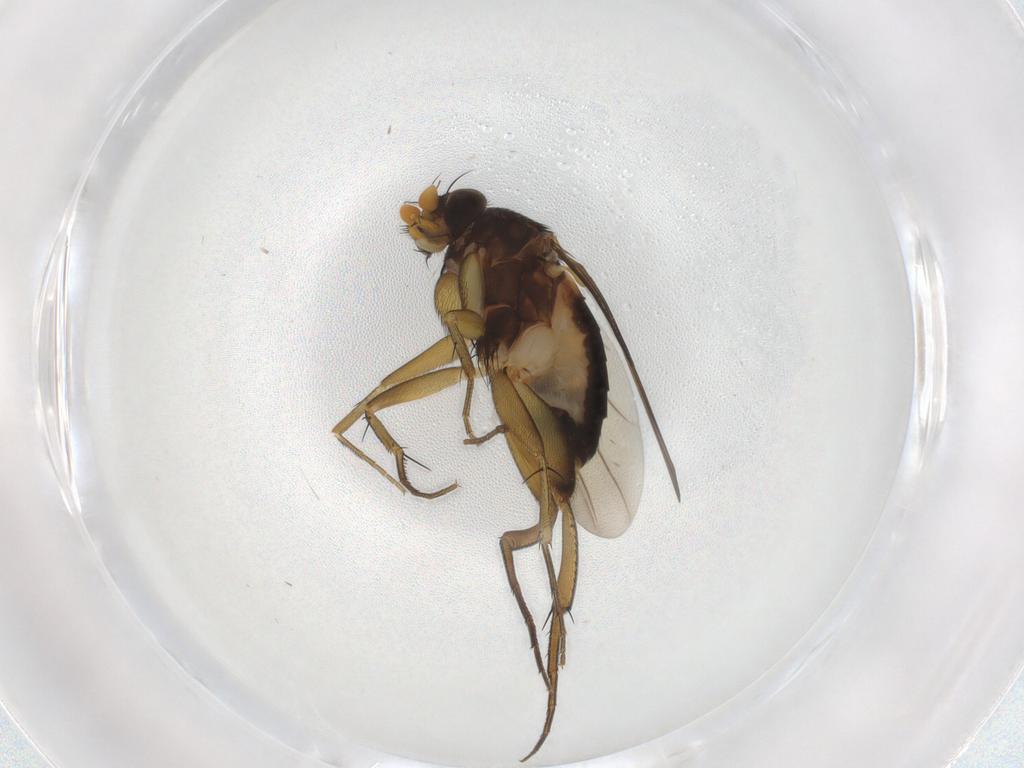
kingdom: Animalia
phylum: Arthropoda
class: Insecta
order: Diptera
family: Phoridae
